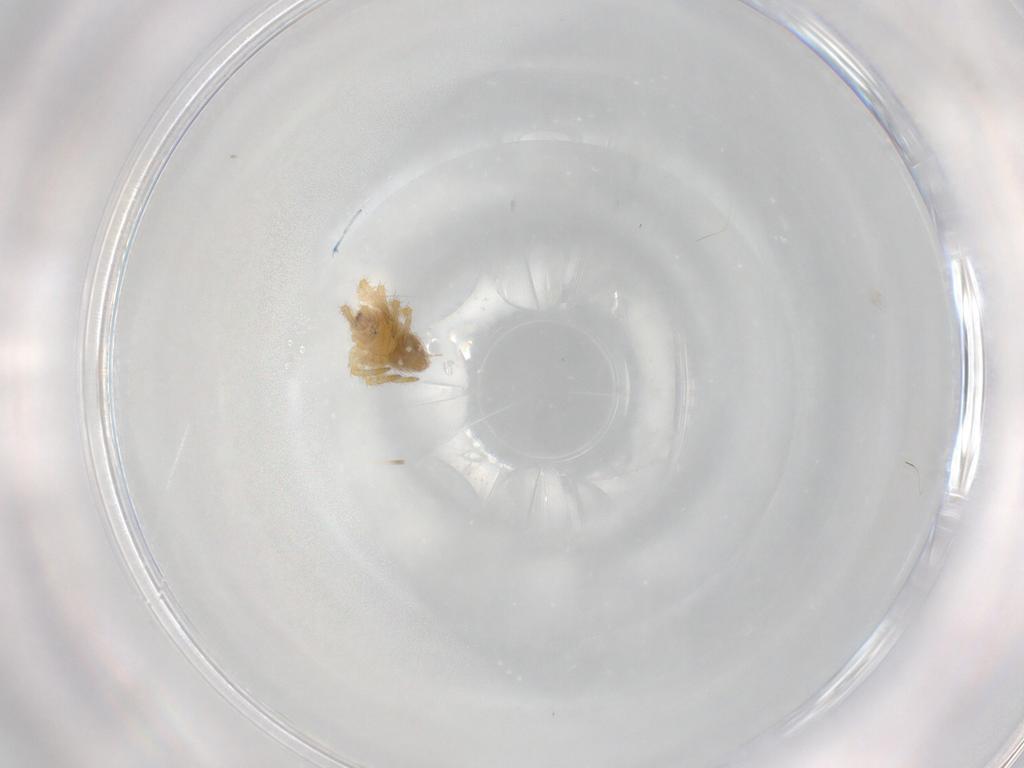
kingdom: Animalia
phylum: Arthropoda
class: Arachnida
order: Araneae
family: Theridiidae
